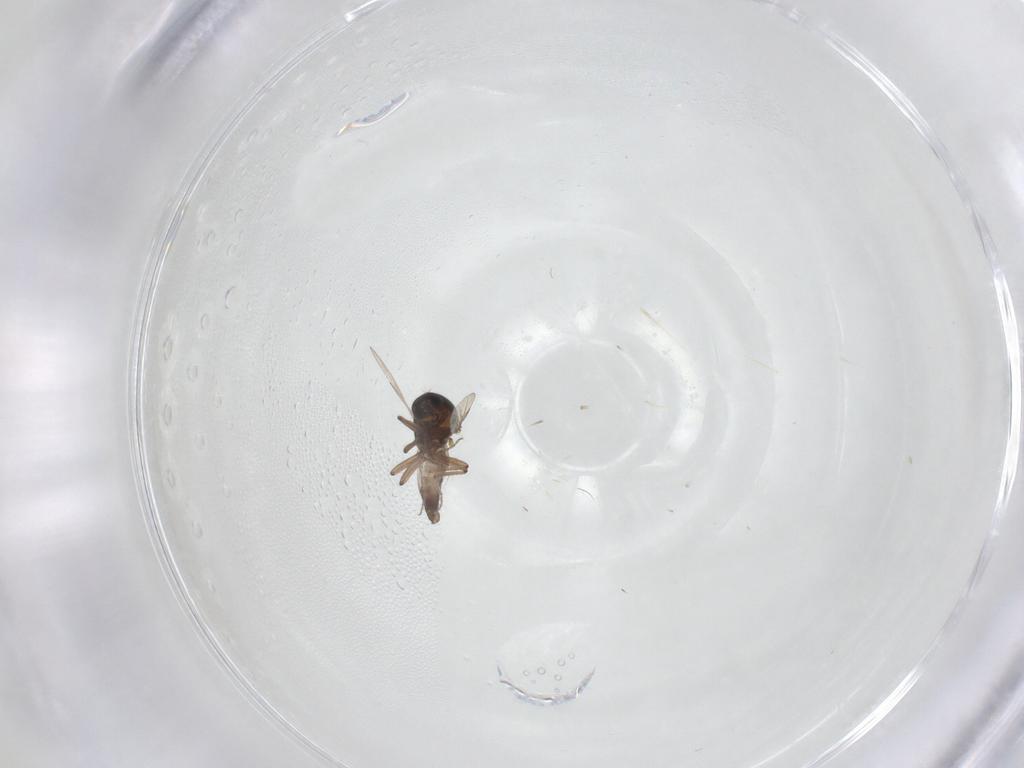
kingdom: Animalia
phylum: Arthropoda
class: Insecta
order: Diptera
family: Ceratopogonidae
